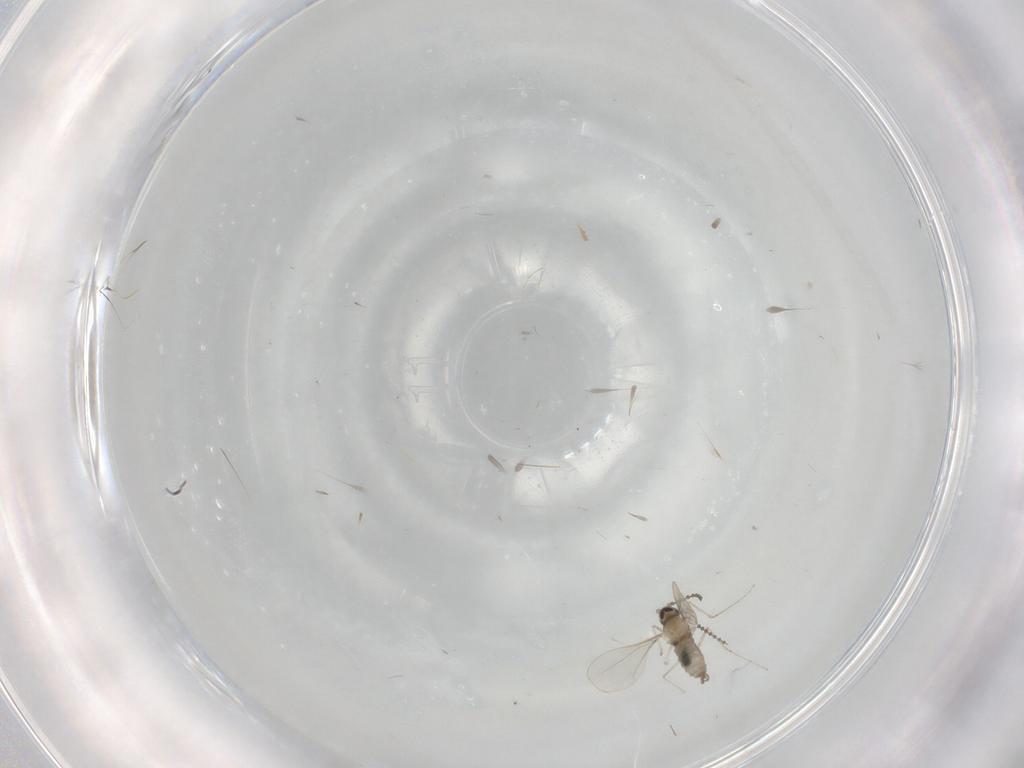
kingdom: Animalia
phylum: Arthropoda
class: Insecta
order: Diptera
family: Cecidomyiidae
